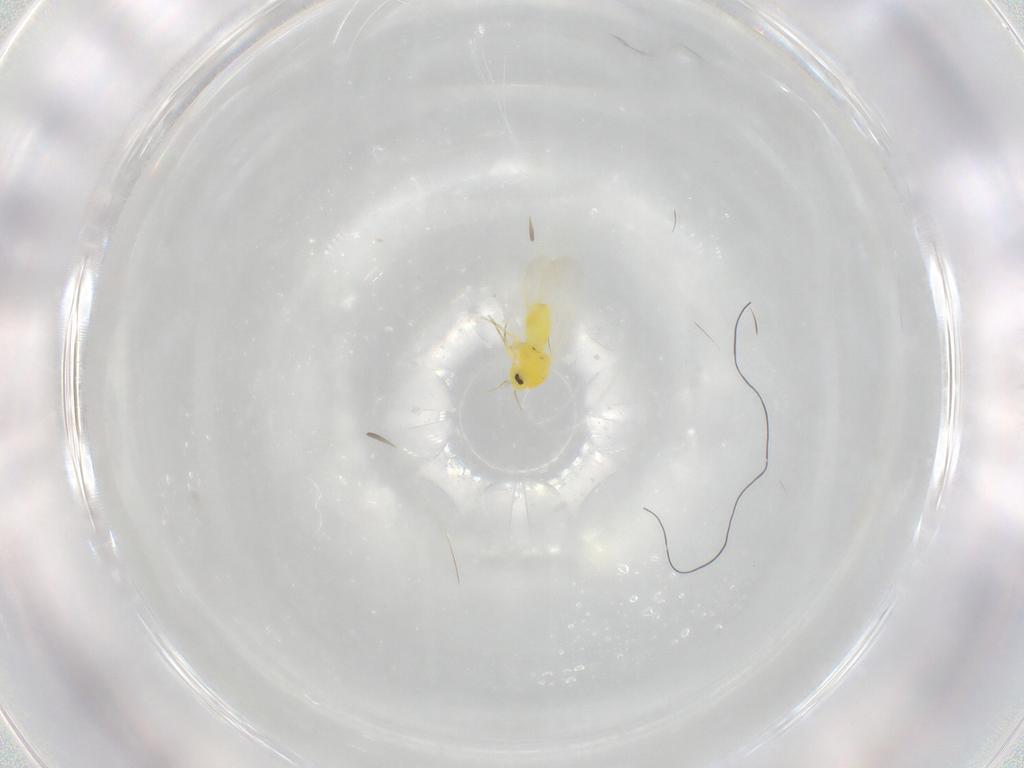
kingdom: Animalia
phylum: Arthropoda
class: Insecta
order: Hemiptera
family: Aleyrodidae
